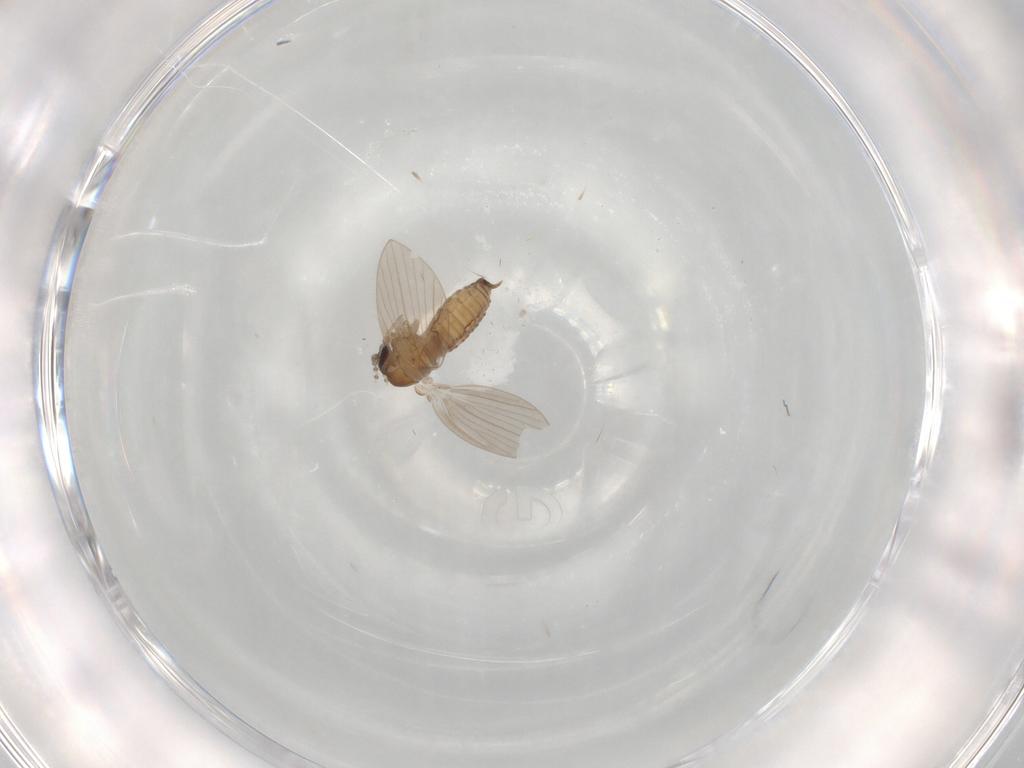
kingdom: Animalia
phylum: Arthropoda
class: Insecta
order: Diptera
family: Psychodidae
